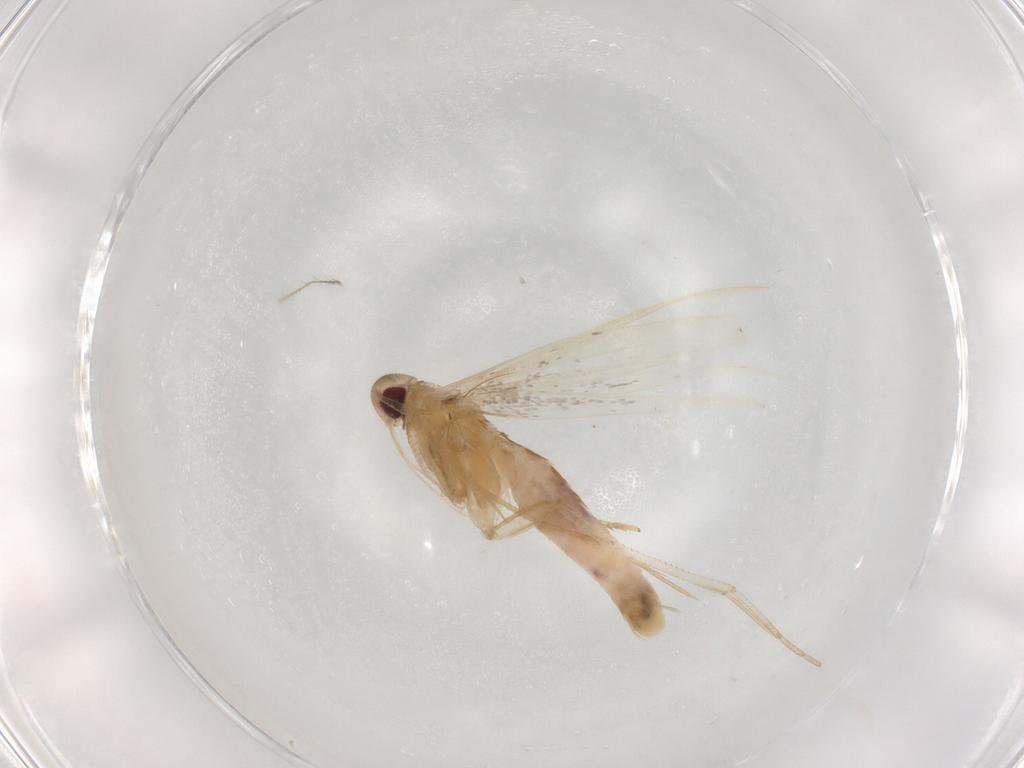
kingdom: Animalia
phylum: Arthropoda
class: Insecta
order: Lepidoptera
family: Cosmopterigidae
